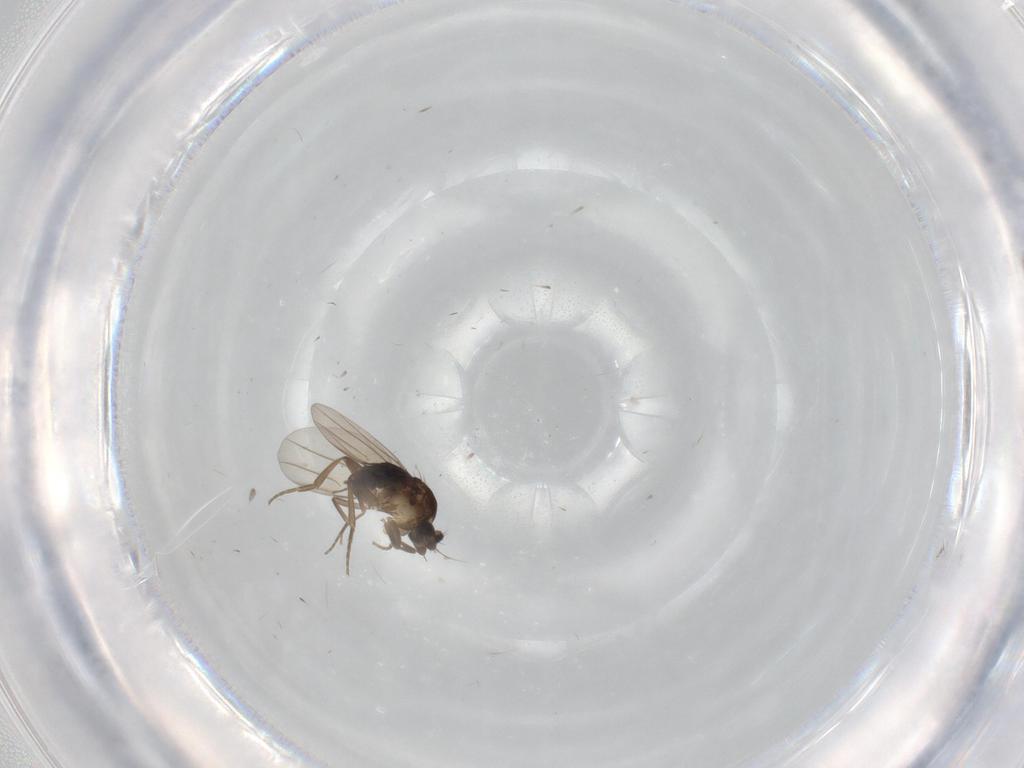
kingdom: Animalia
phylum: Arthropoda
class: Insecta
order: Diptera
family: Phoridae
